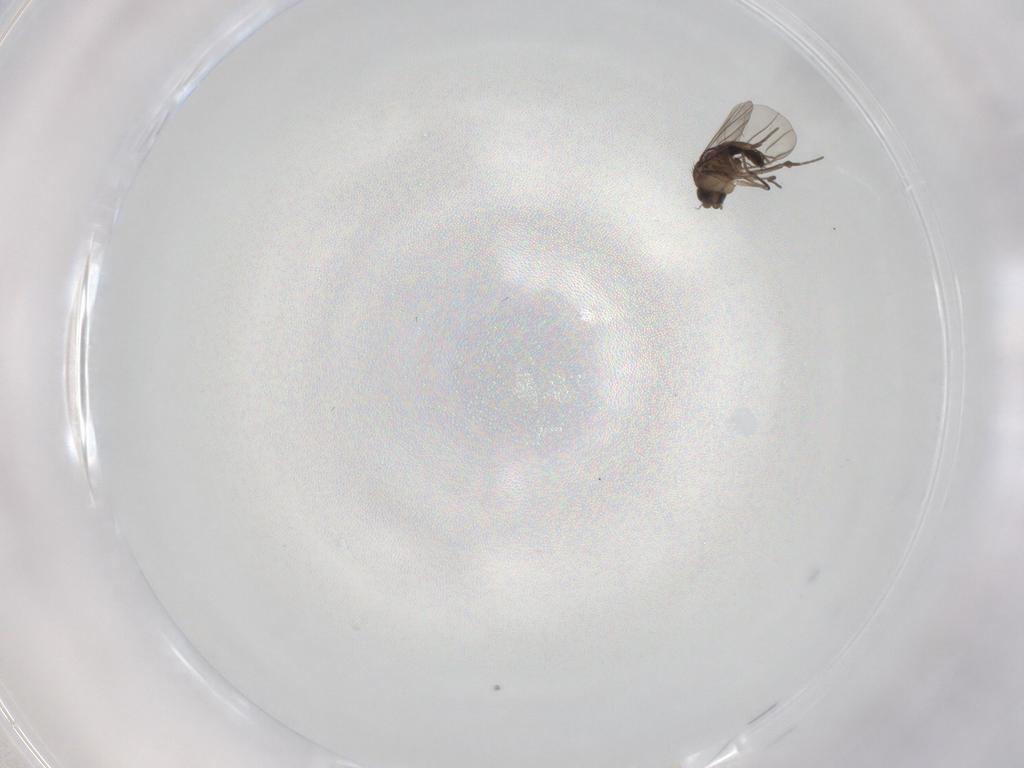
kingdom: Animalia
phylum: Arthropoda
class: Insecta
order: Diptera
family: Phoridae
